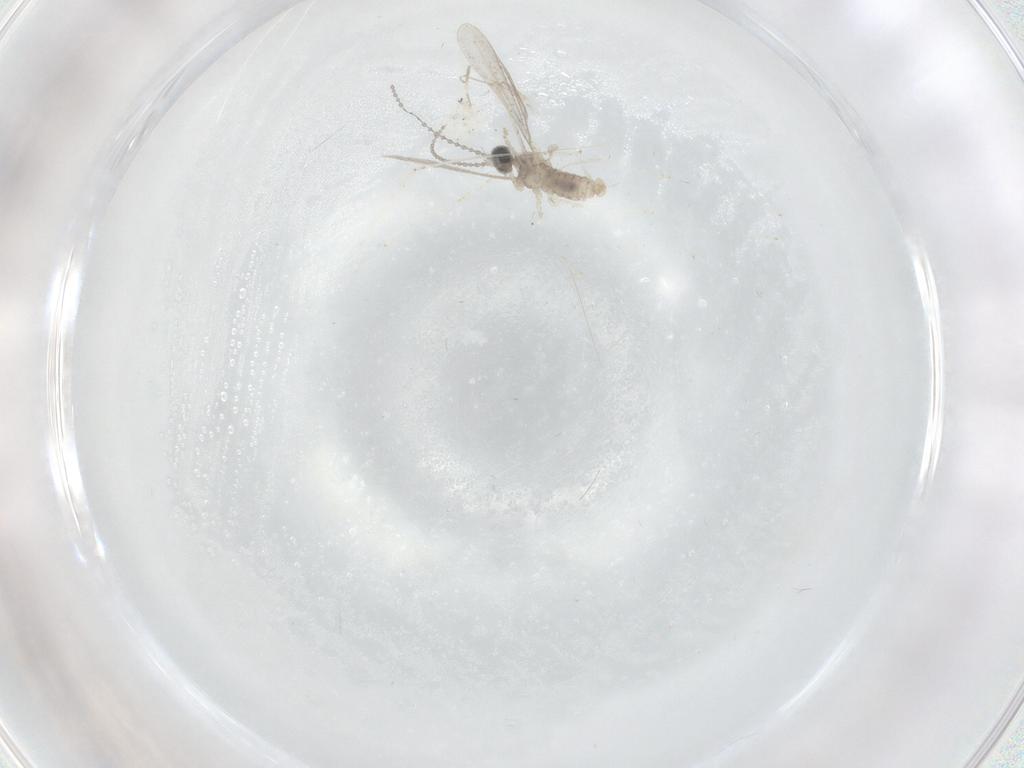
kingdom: Animalia
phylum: Arthropoda
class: Insecta
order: Diptera
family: Cecidomyiidae
